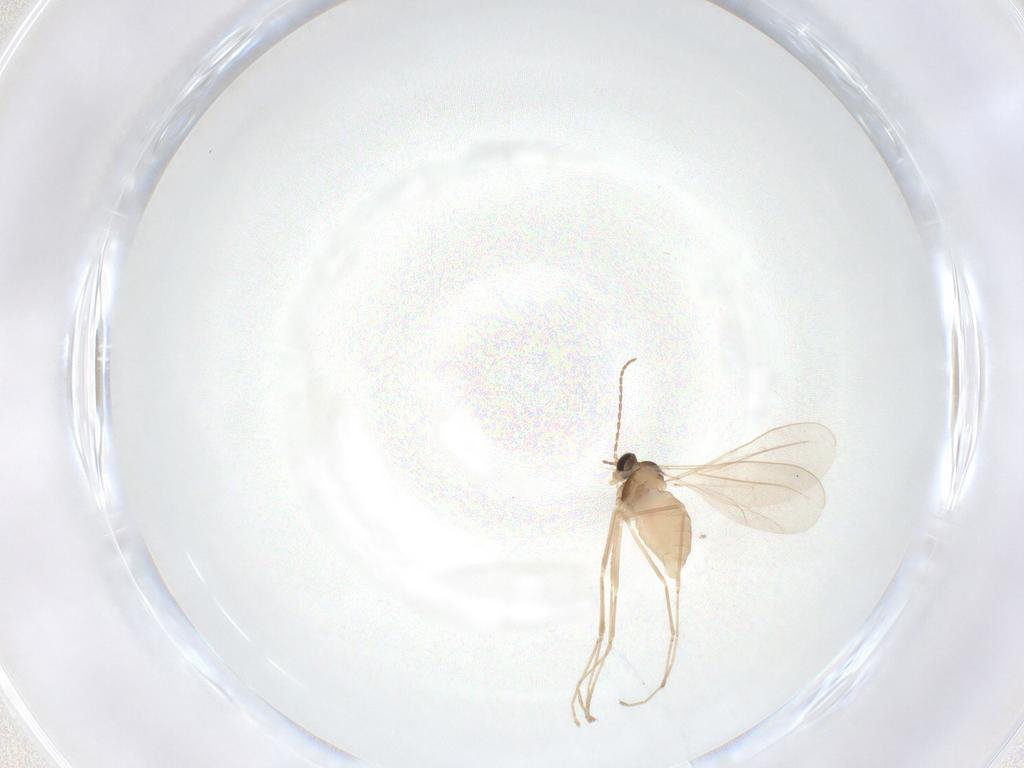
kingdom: Animalia
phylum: Arthropoda
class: Insecta
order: Diptera
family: Cecidomyiidae
